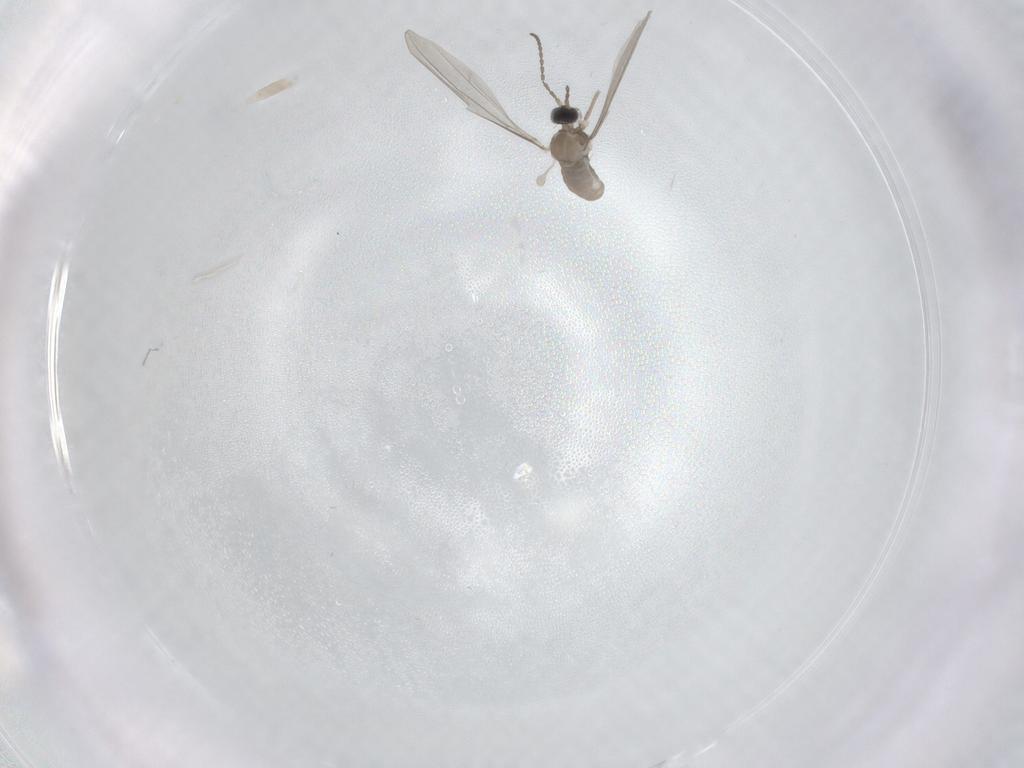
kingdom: Animalia
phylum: Arthropoda
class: Insecta
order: Diptera
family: Cecidomyiidae
